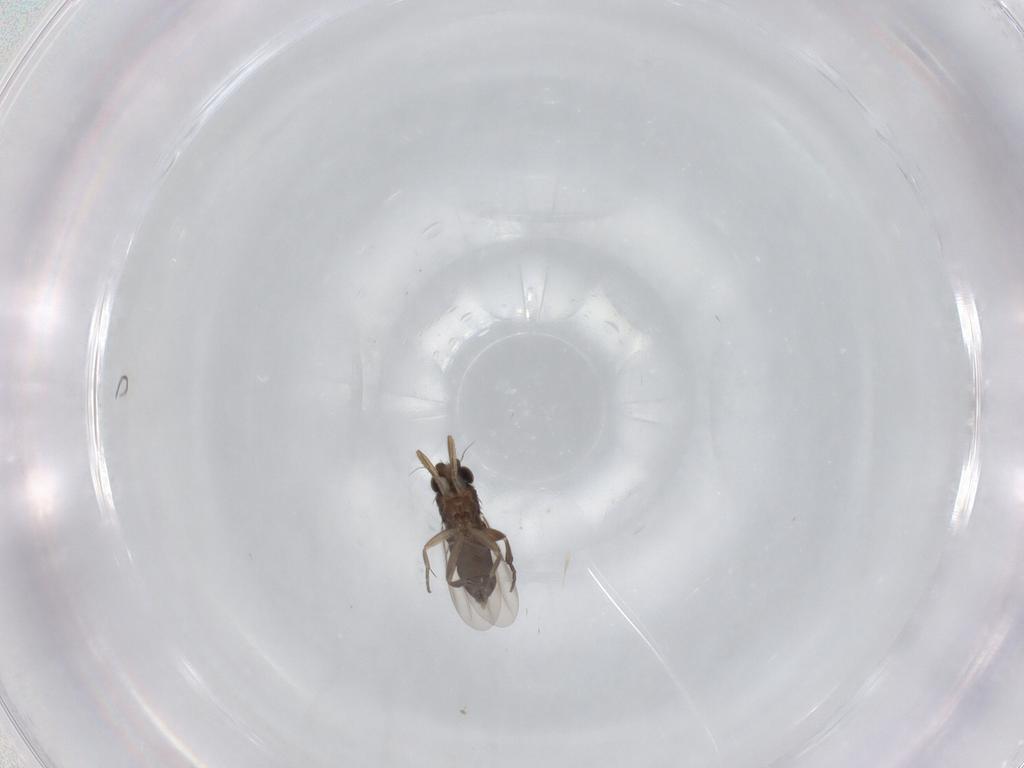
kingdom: Animalia
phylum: Arthropoda
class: Insecta
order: Diptera
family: Phoridae
